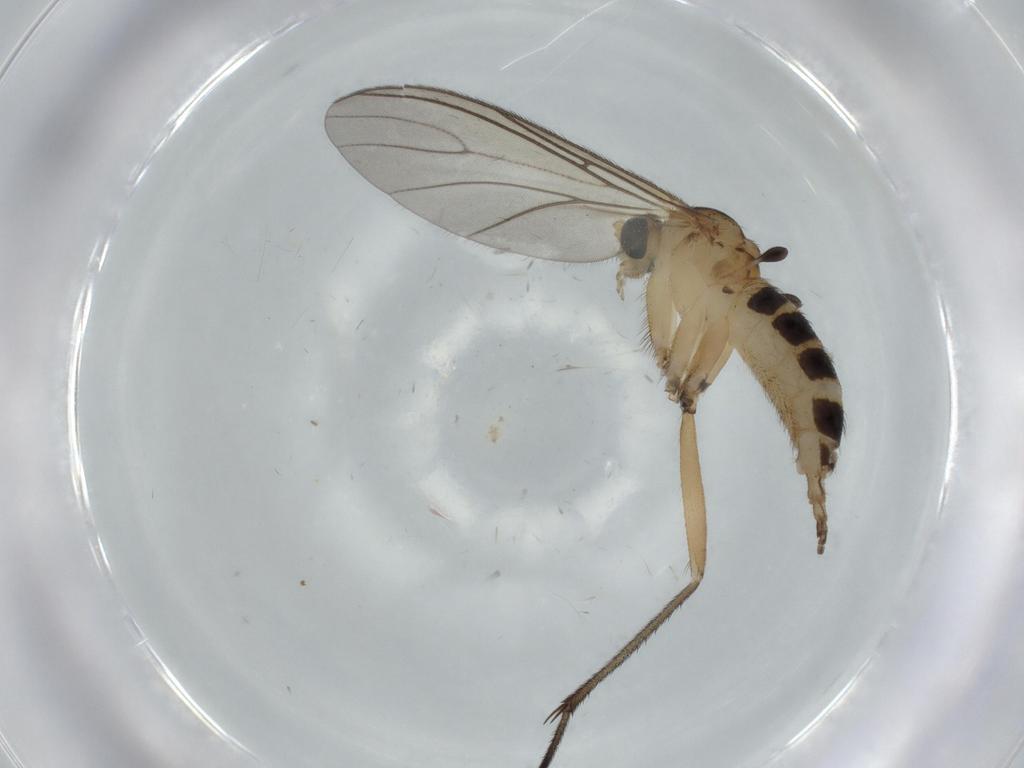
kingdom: Animalia
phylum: Arthropoda
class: Insecta
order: Diptera
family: Sciaridae
